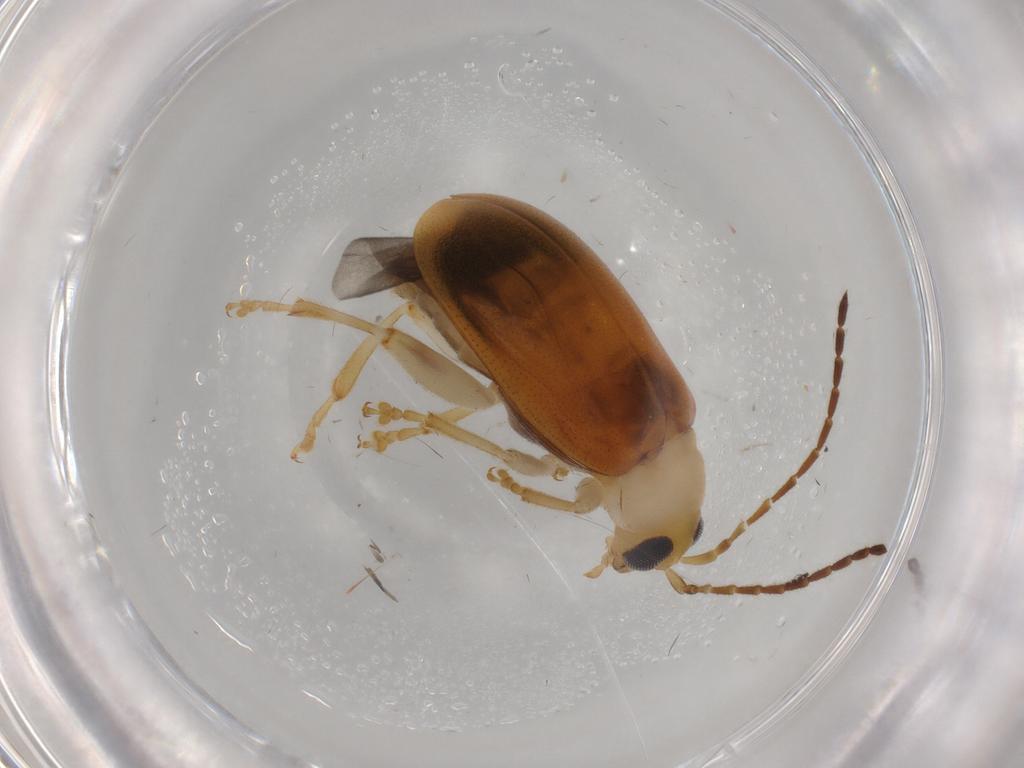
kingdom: Animalia
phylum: Arthropoda
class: Insecta
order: Coleoptera
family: Chrysomelidae
